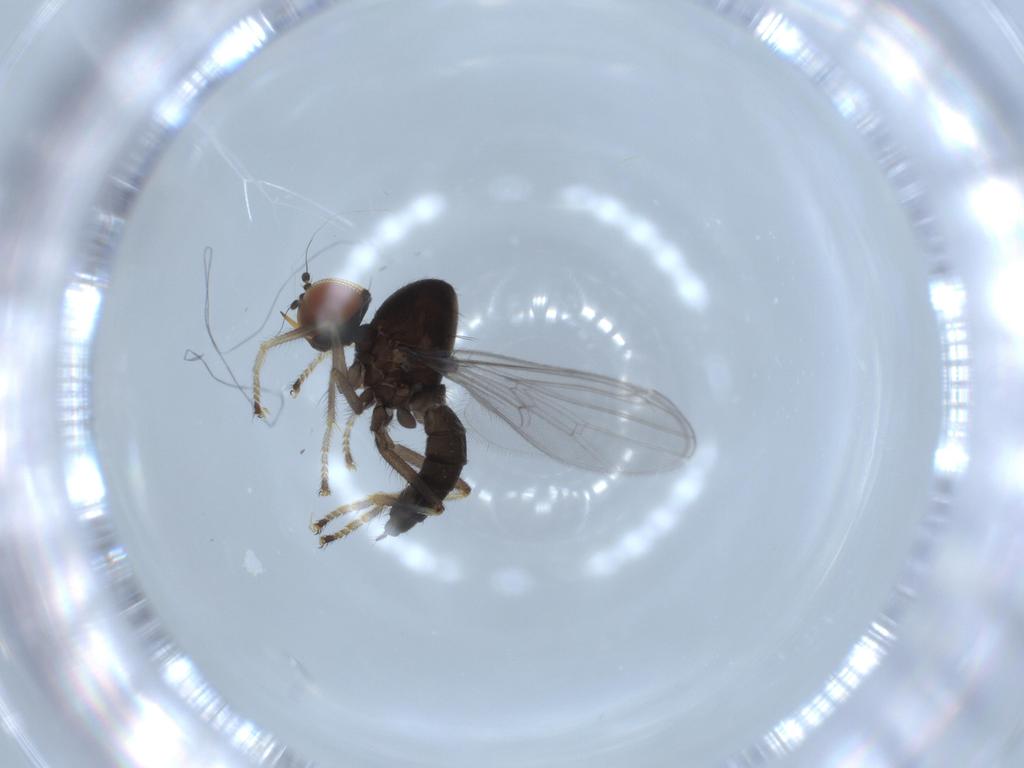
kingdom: Animalia
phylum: Arthropoda
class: Insecta
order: Diptera
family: Hybotidae
